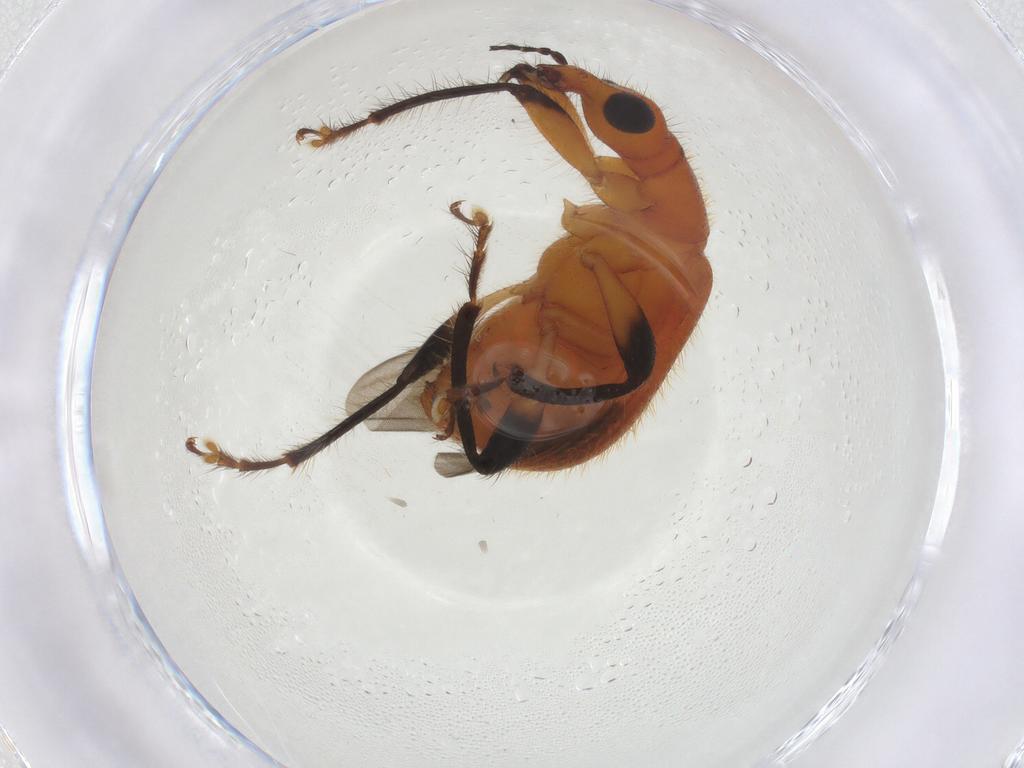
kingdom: Animalia
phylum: Arthropoda
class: Insecta
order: Coleoptera
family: Attelabidae
